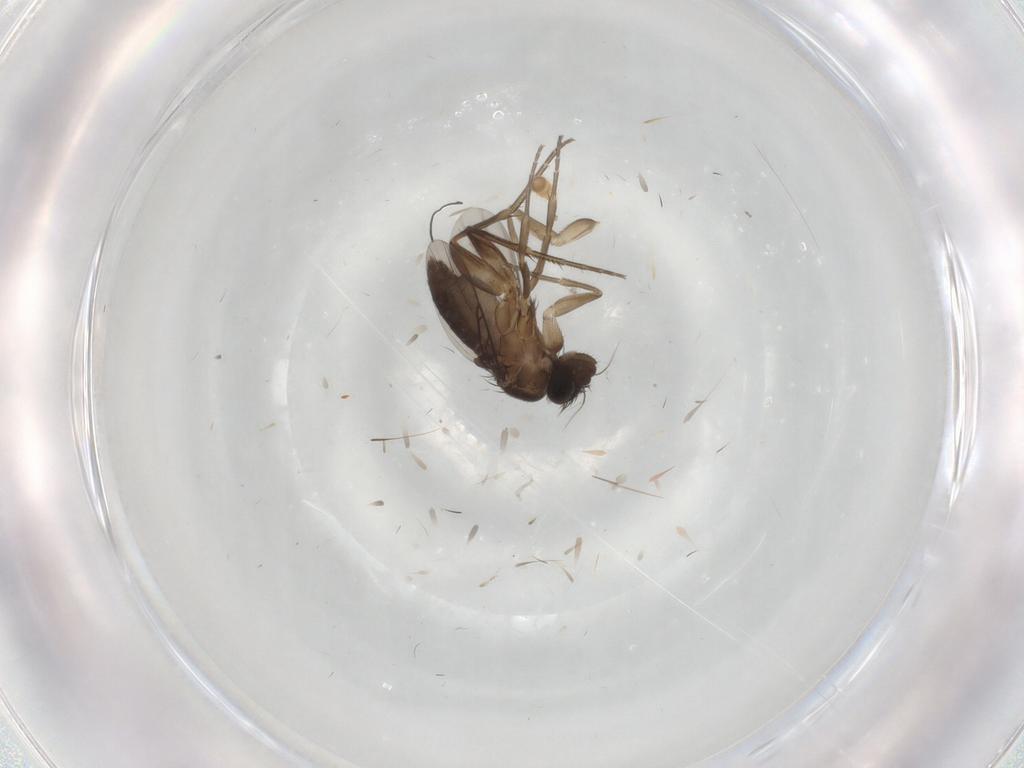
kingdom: Animalia
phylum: Arthropoda
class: Insecta
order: Diptera
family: Phoridae
